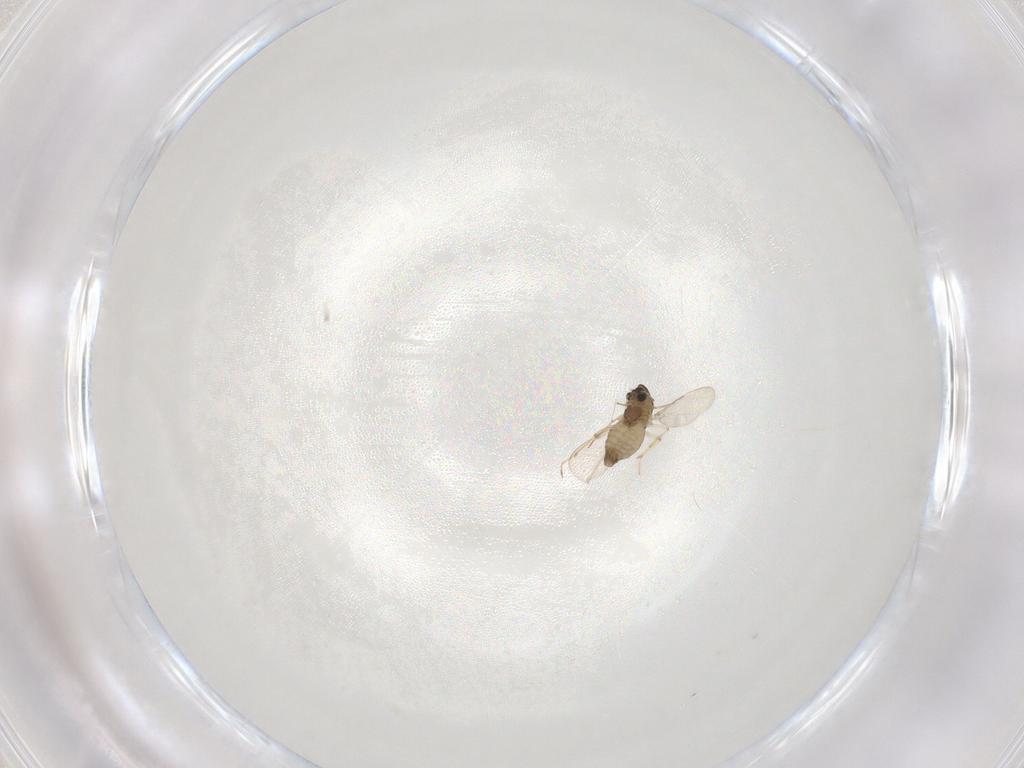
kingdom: Animalia
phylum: Arthropoda
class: Insecta
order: Diptera
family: Chironomidae
